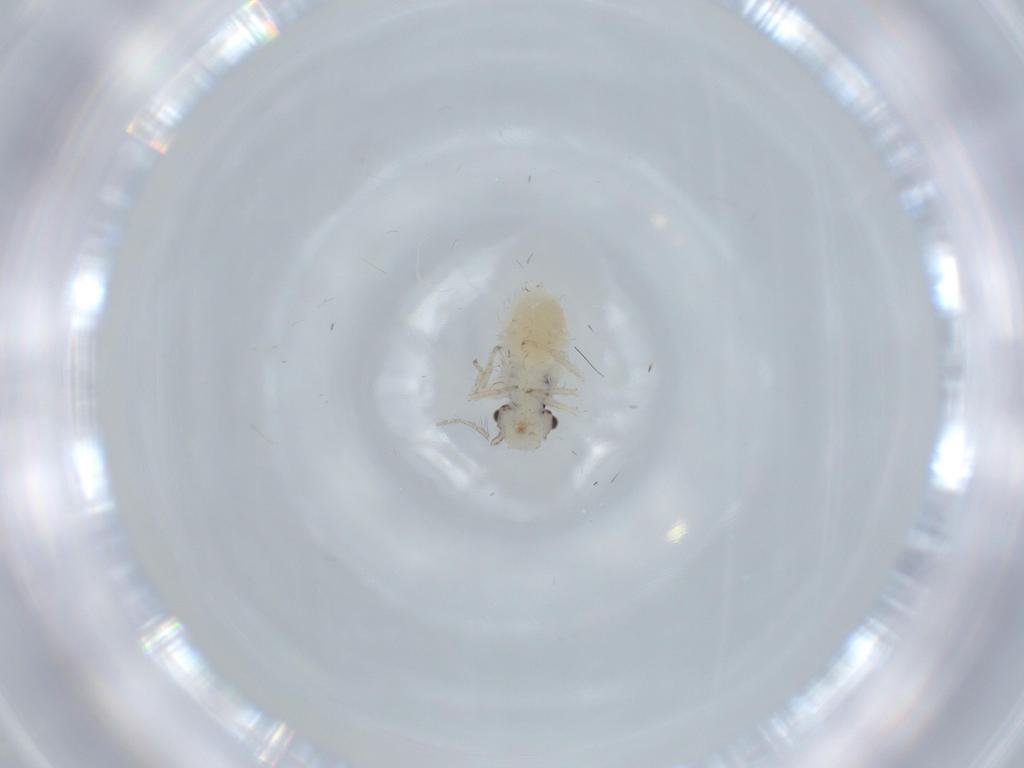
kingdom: Animalia
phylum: Arthropoda
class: Insecta
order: Psocodea
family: Pseudocaeciliidae
